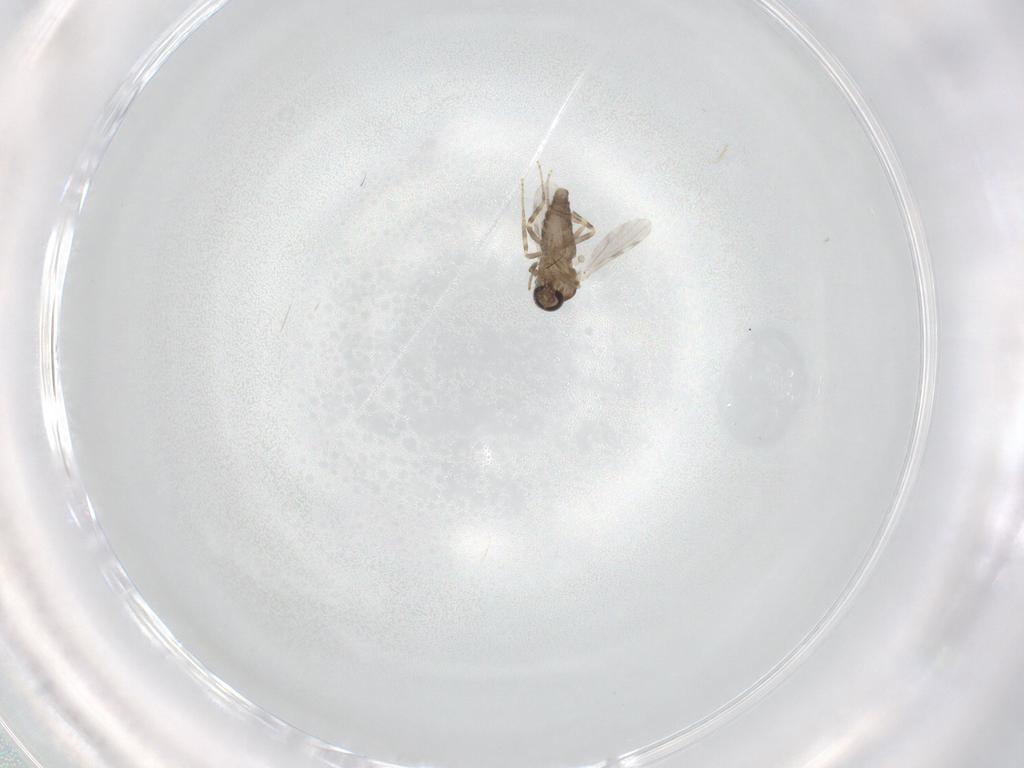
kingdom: Animalia
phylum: Arthropoda
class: Insecta
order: Diptera
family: Ceratopogonidae
